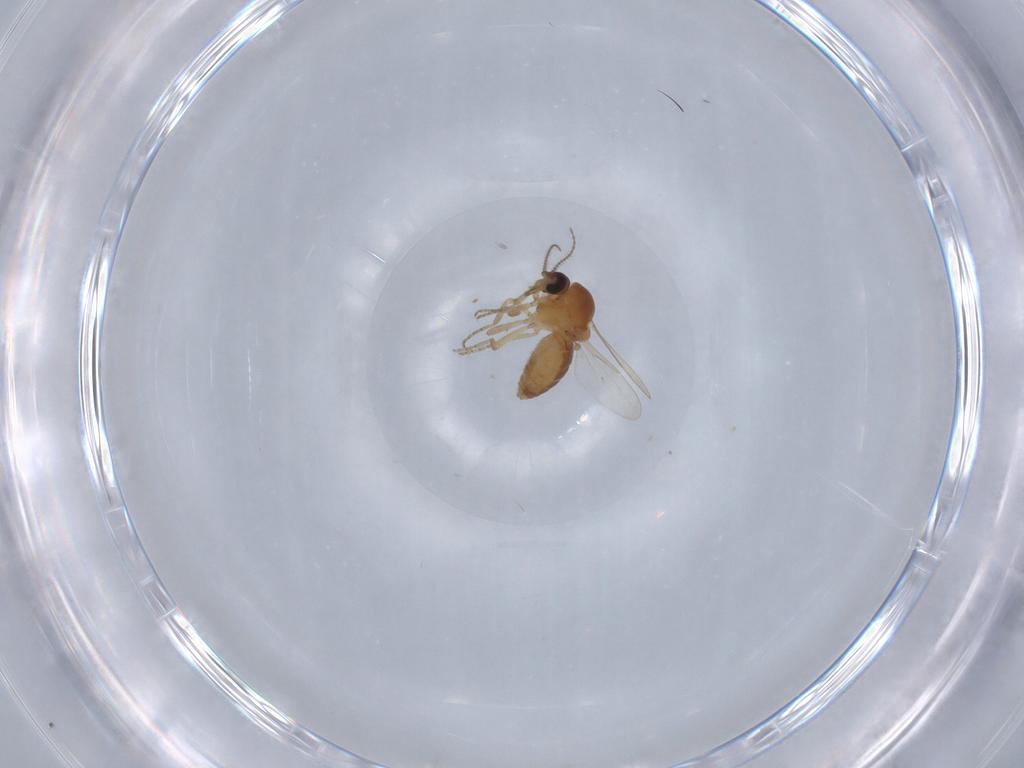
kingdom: Animalia
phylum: Arthropoda
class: Insecta
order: Diptera
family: Ceratopogonidae
